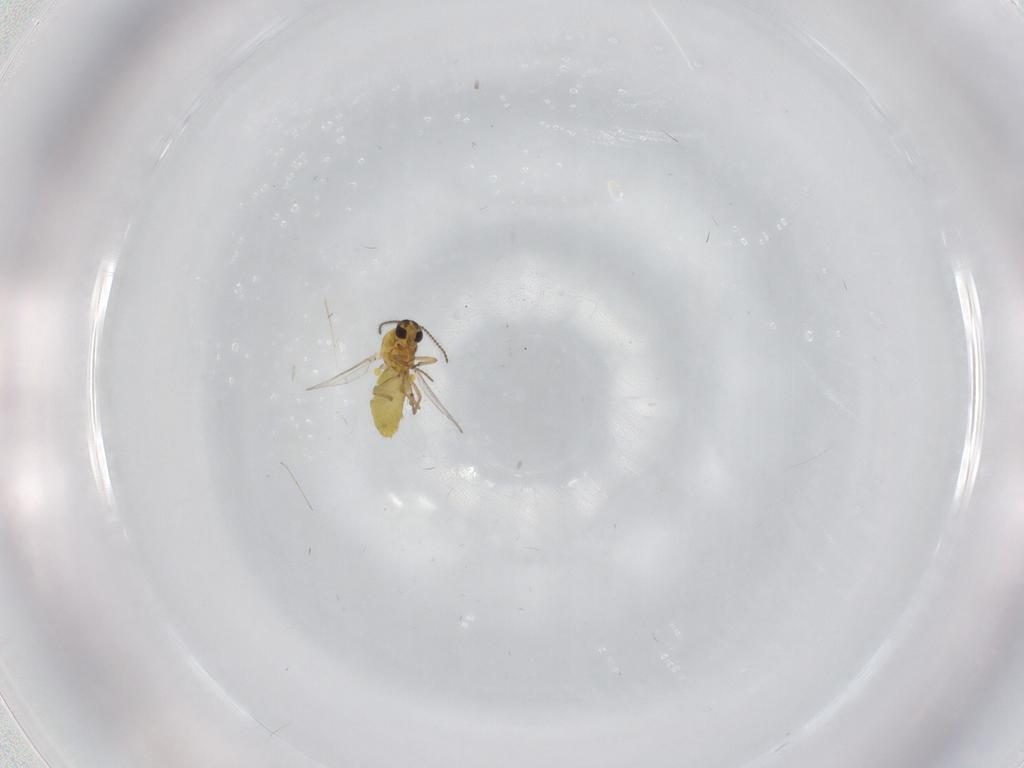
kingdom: Animalia
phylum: Arthropoda
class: Insecta
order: Diptera
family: Ceratopogonidae
